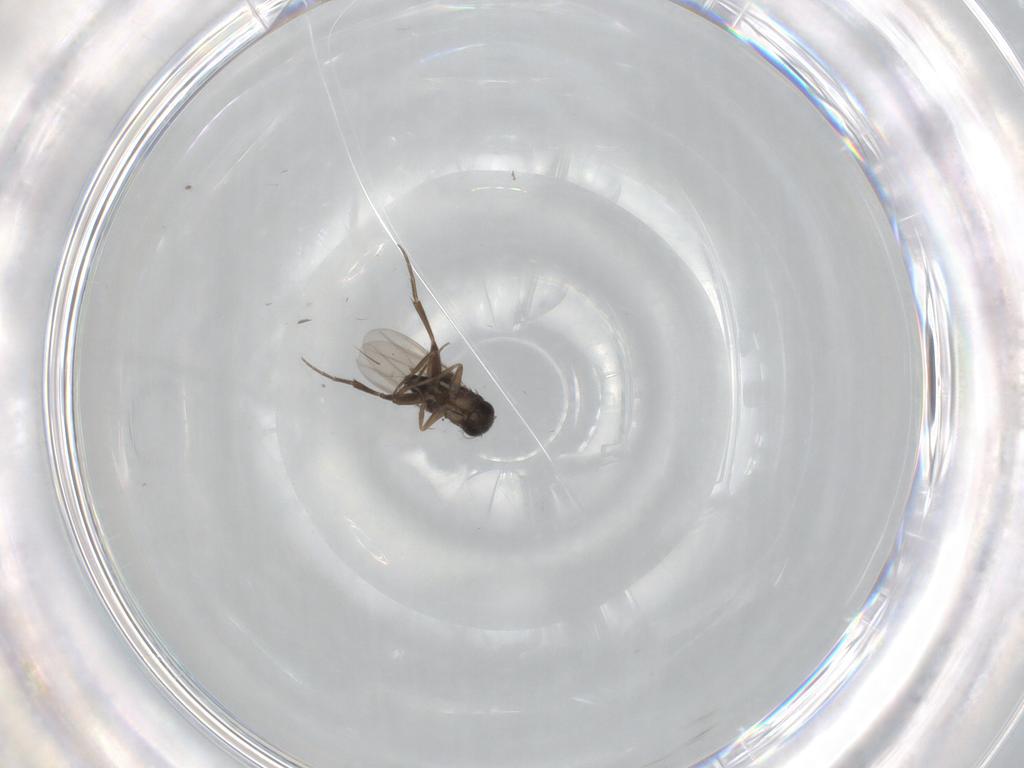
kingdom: Animalia
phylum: Arthropoda
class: Insecta
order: Diptera
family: Phoridae
